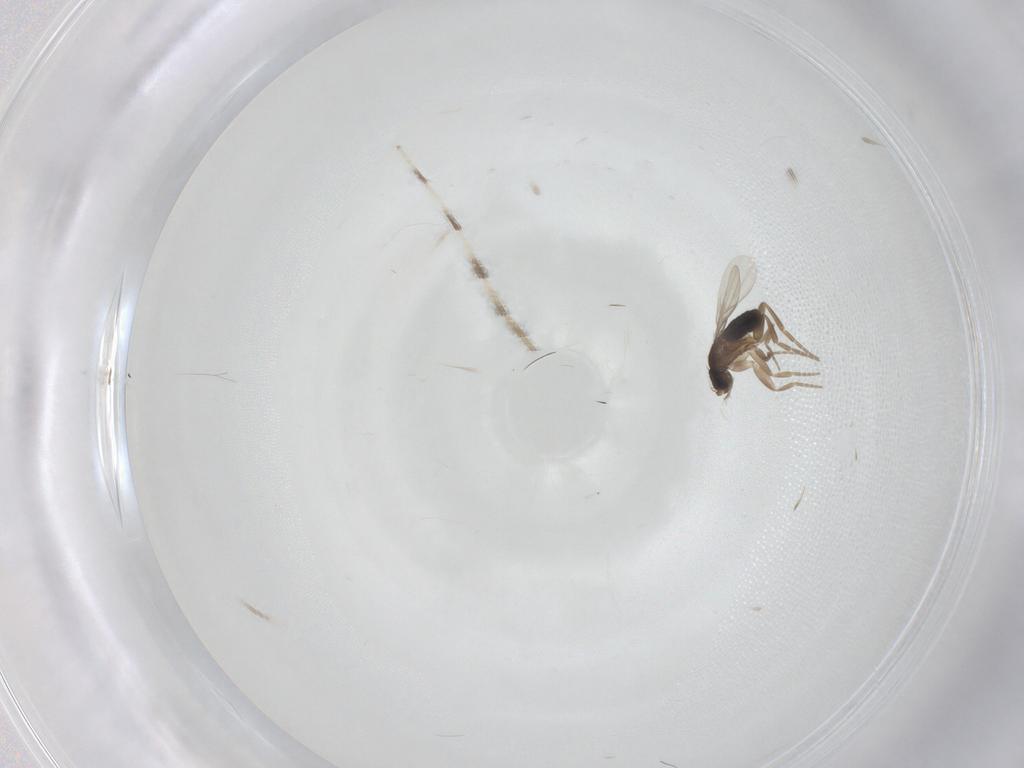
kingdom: Animalia
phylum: Arthropoda
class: Insecta
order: Diptera
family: Phoridae
